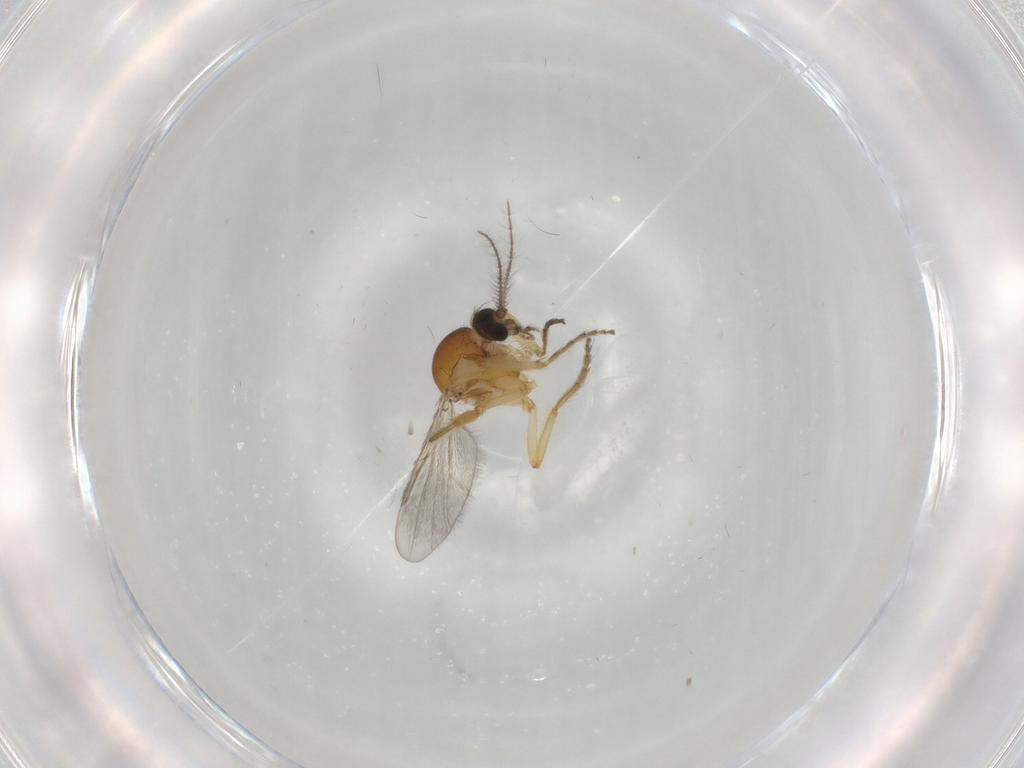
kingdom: Animalia
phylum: Arthropoda
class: Insecta
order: Diptera
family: Ceratopogonidae
